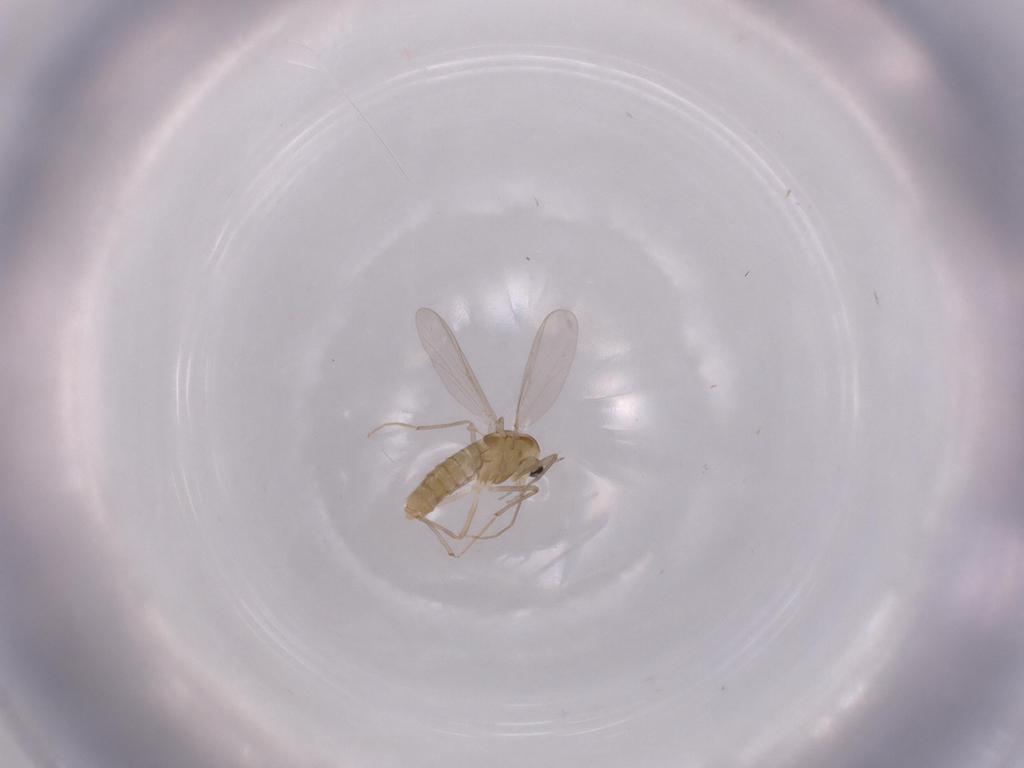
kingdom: Animalia
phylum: Arthropoda
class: Insecta
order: Diptera
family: Chironomidae
